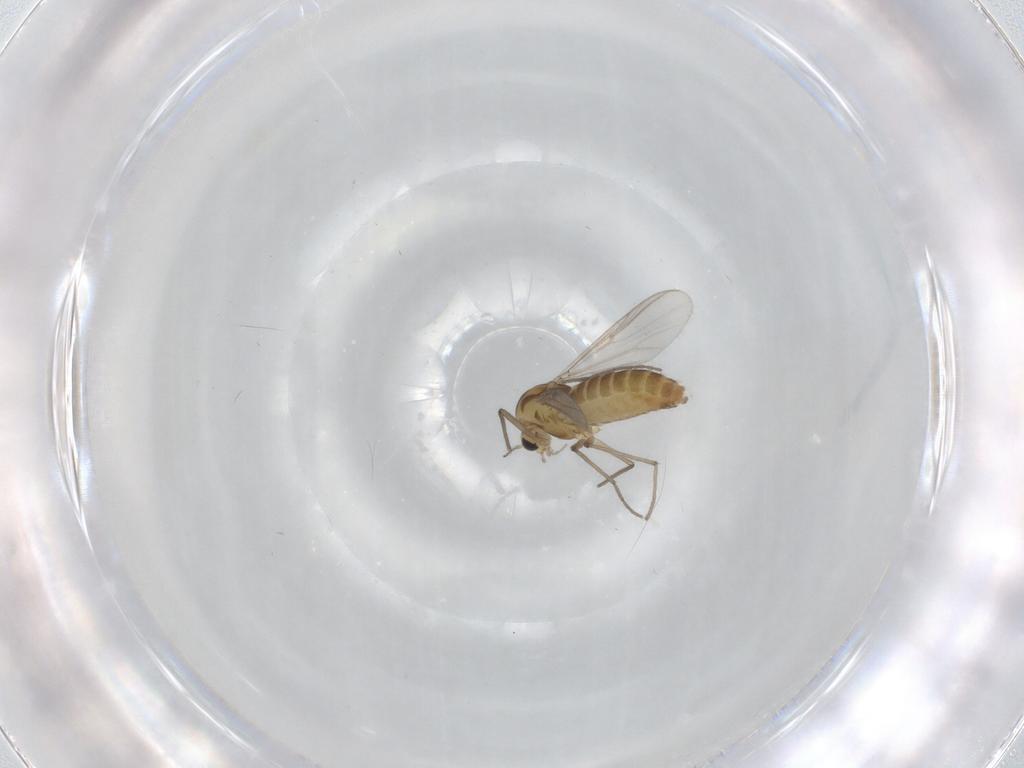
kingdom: Animalia
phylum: Arthropoda
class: Insecta
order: Diptera
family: Chironomidae
